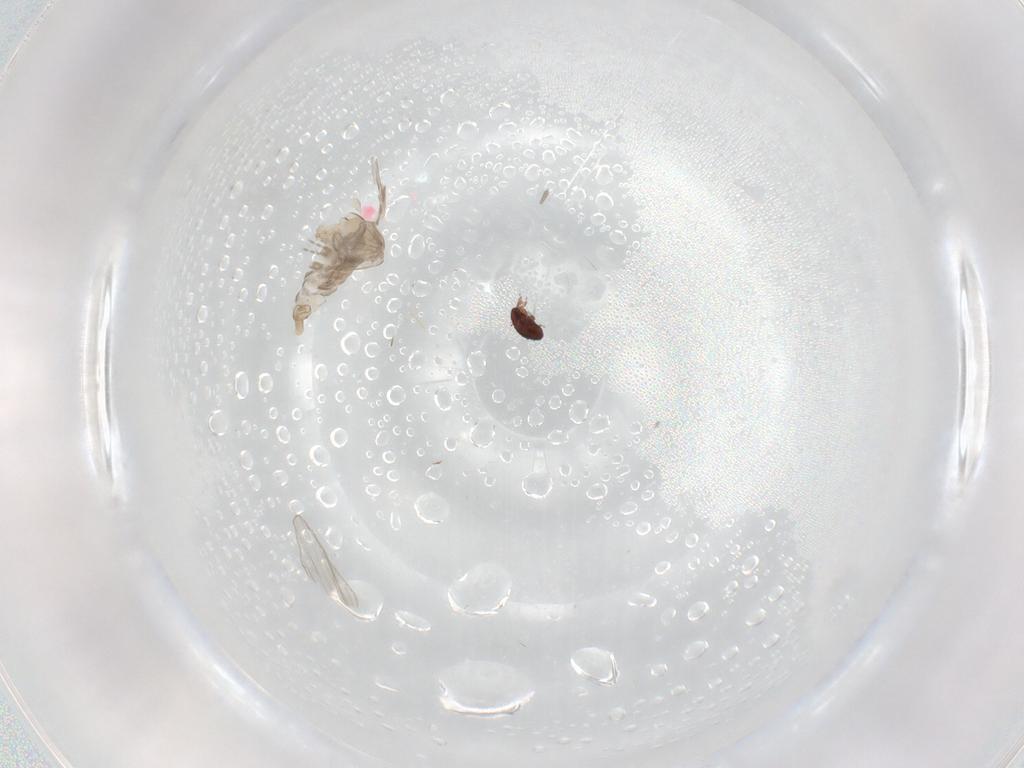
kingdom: Animalia
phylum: Arthropoda
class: Insecta
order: Diptera
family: Psychodidae
